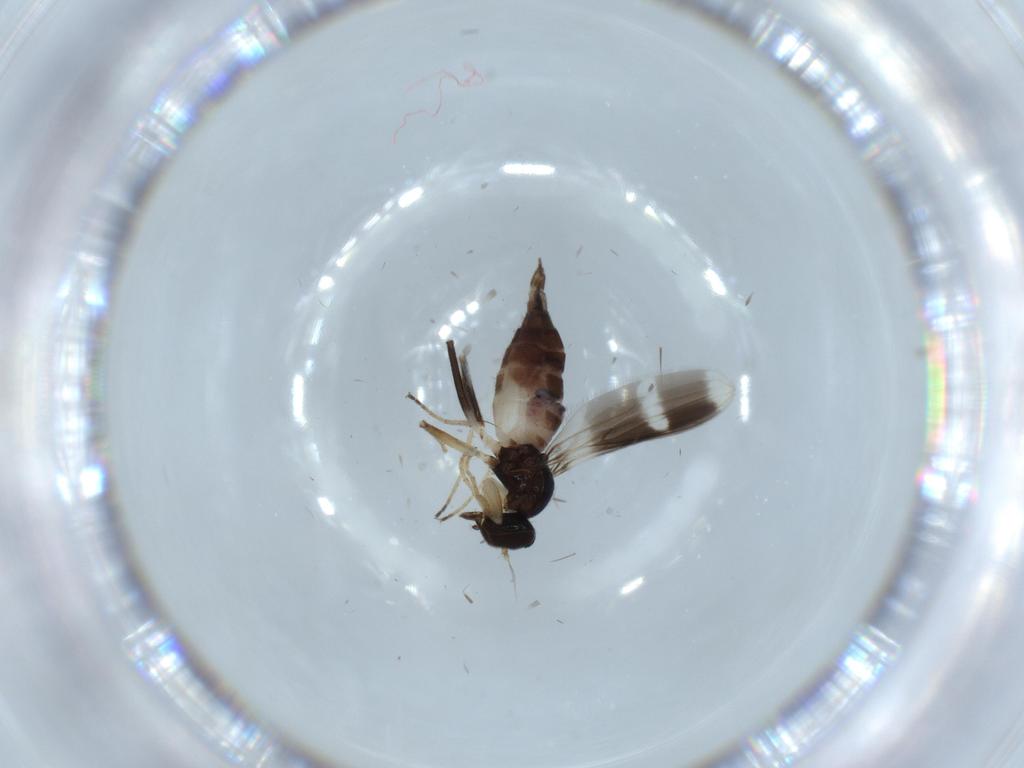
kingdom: Animalia
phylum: Arthropoda
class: Insecta
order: Diptera
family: Hybotidae
